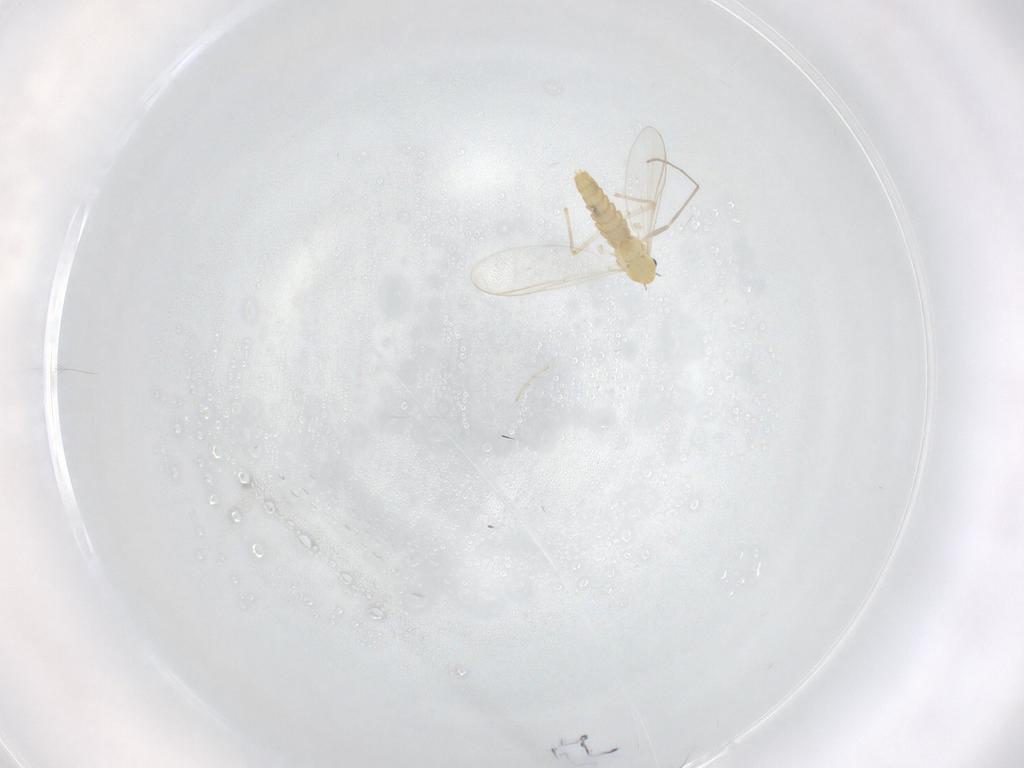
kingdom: Animalia
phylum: Arthropoda
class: Insecta
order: Diptera
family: Chironomidae
